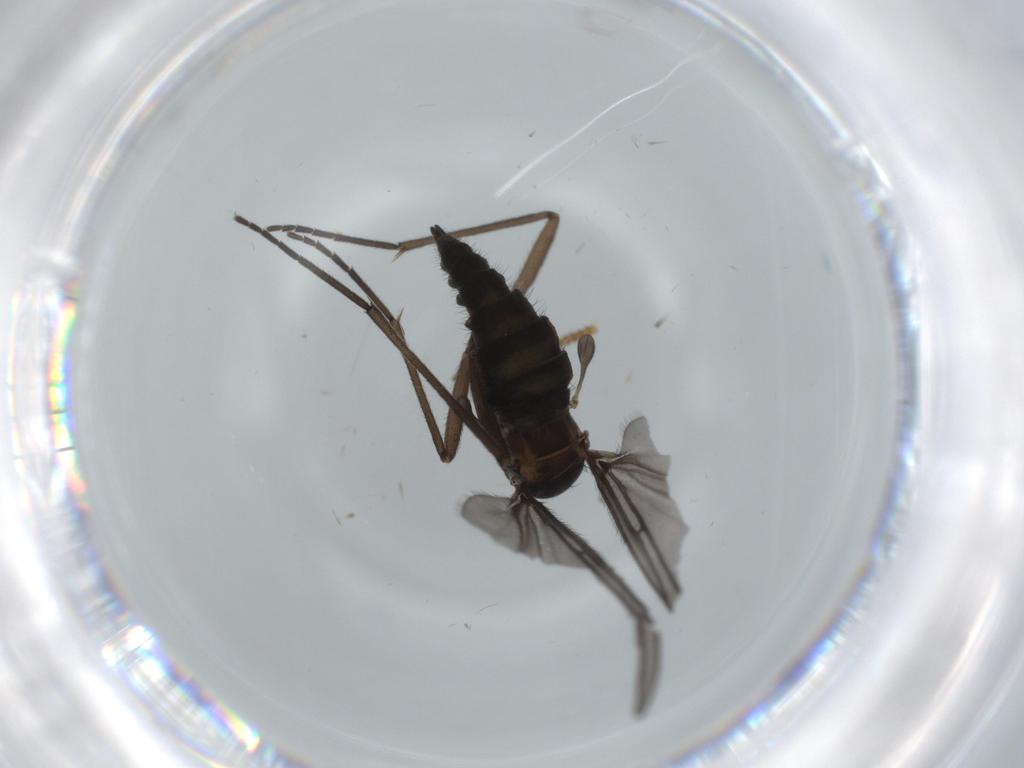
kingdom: Animalia
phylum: Arthropoda
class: Insecta
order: Diptera
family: Sciaridae
